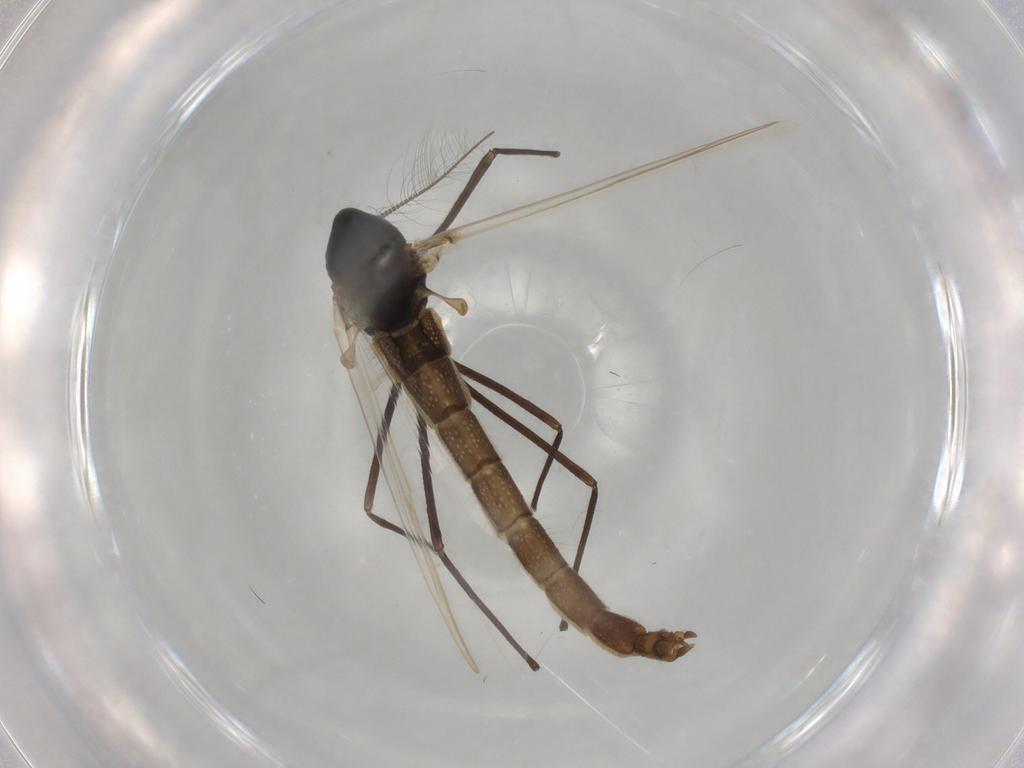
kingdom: Animalia
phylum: Arthropoda
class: Insecta
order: Diptera
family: Chironomidae
